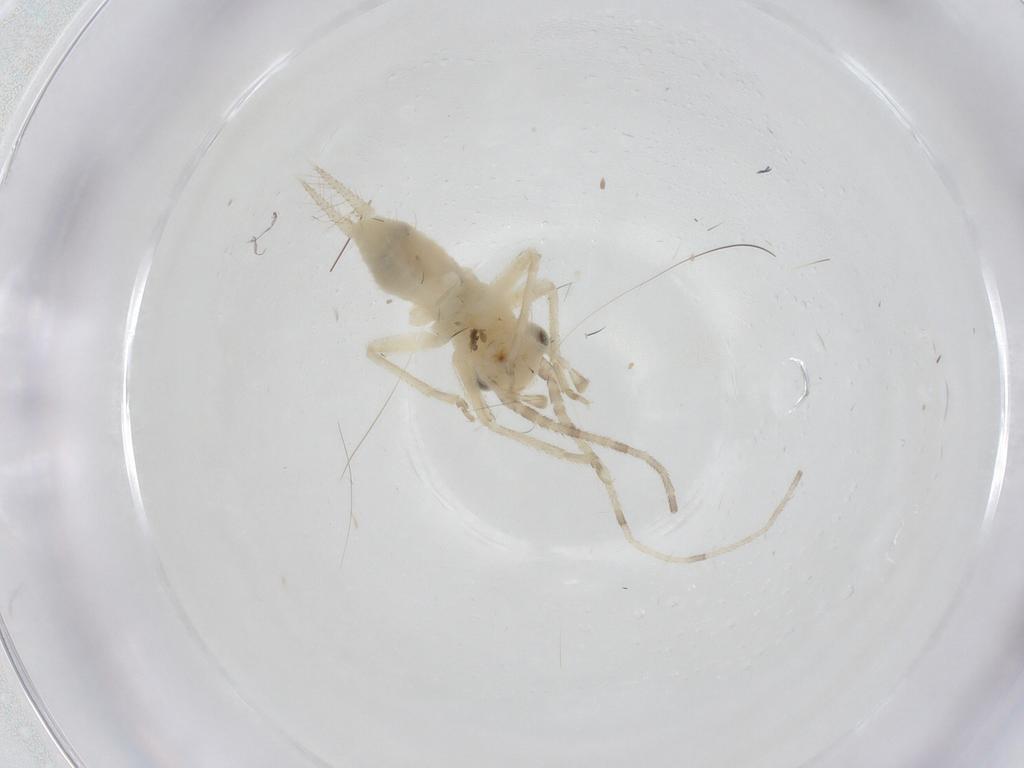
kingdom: Animalia
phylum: Arthropoda
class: Insecta
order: Orthoptera
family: Trigonidiidae
